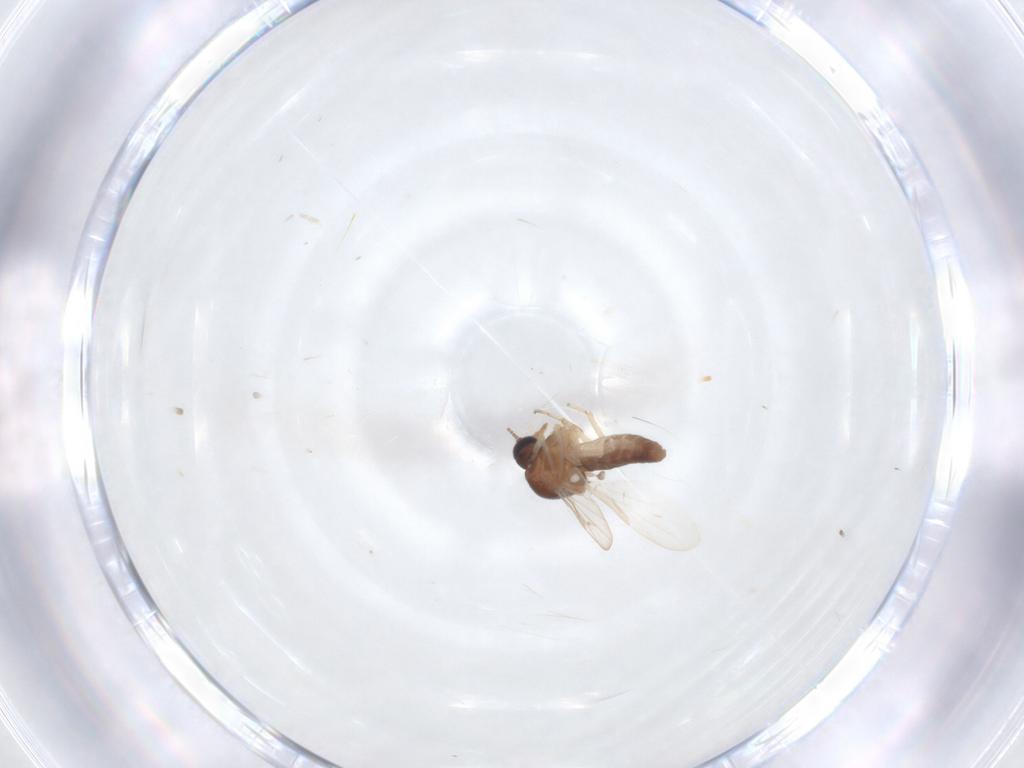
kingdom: Animalia
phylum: Arthropoda
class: Insecta
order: Diptera
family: Ceratopogonidae
